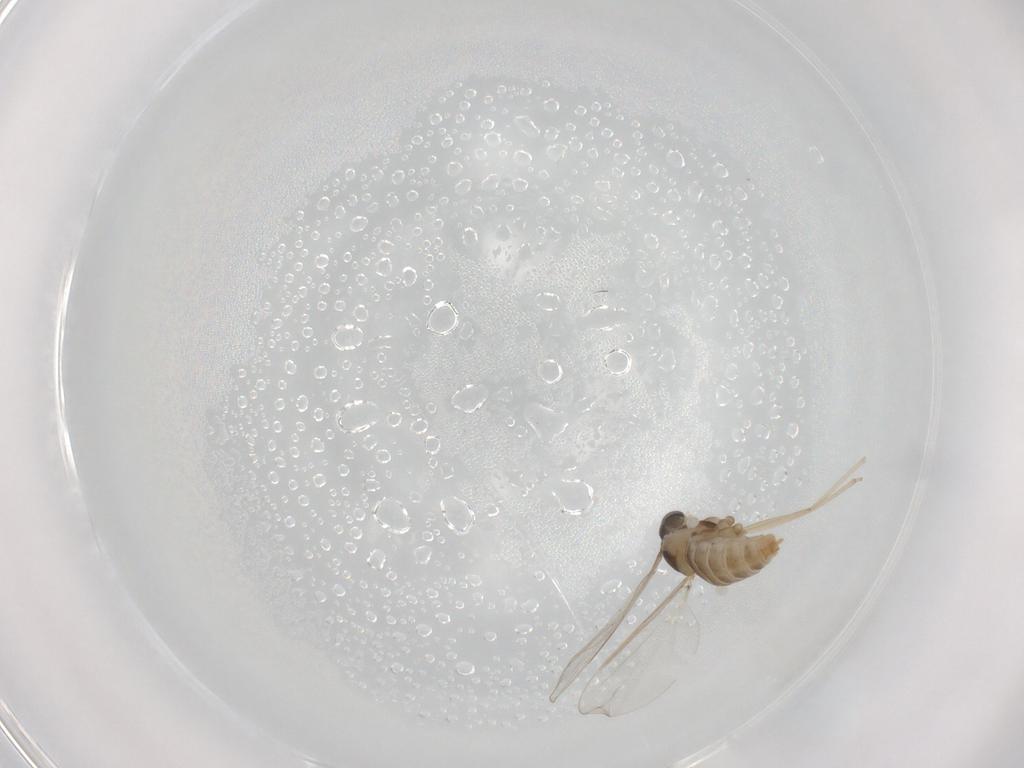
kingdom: Animalia
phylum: Arthropoda
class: Insecta
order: Diptera
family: Cecidomyiidae
